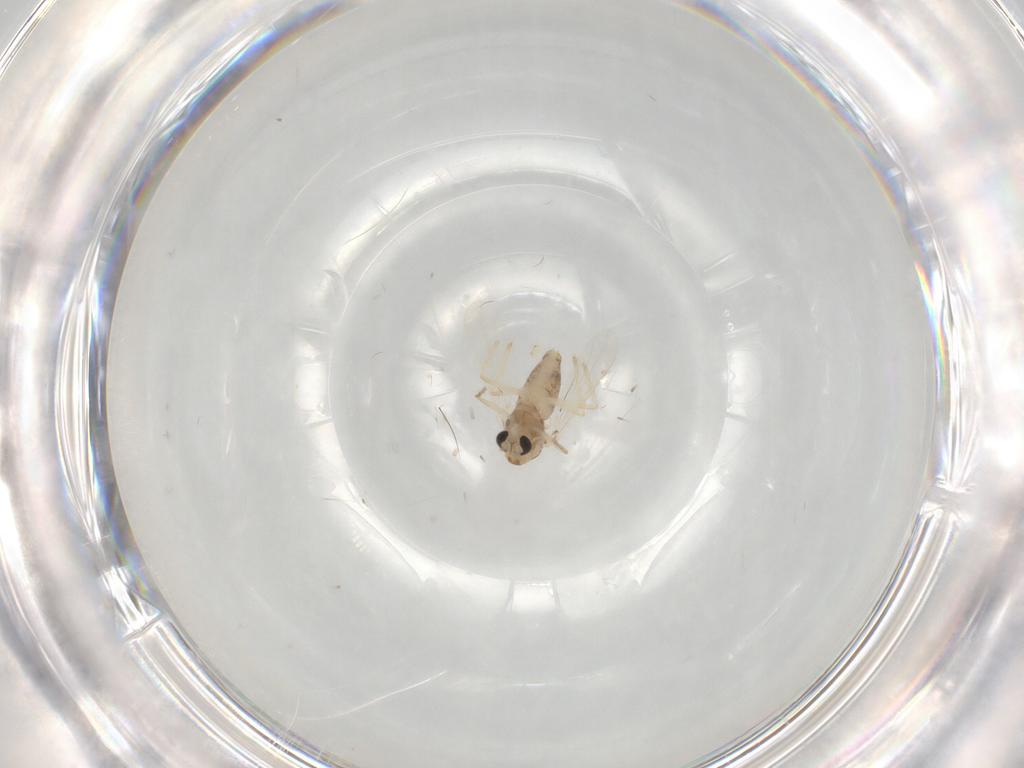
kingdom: Animalia
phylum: Arthropoda
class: Insecta
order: Diptera
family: Chironomidae
